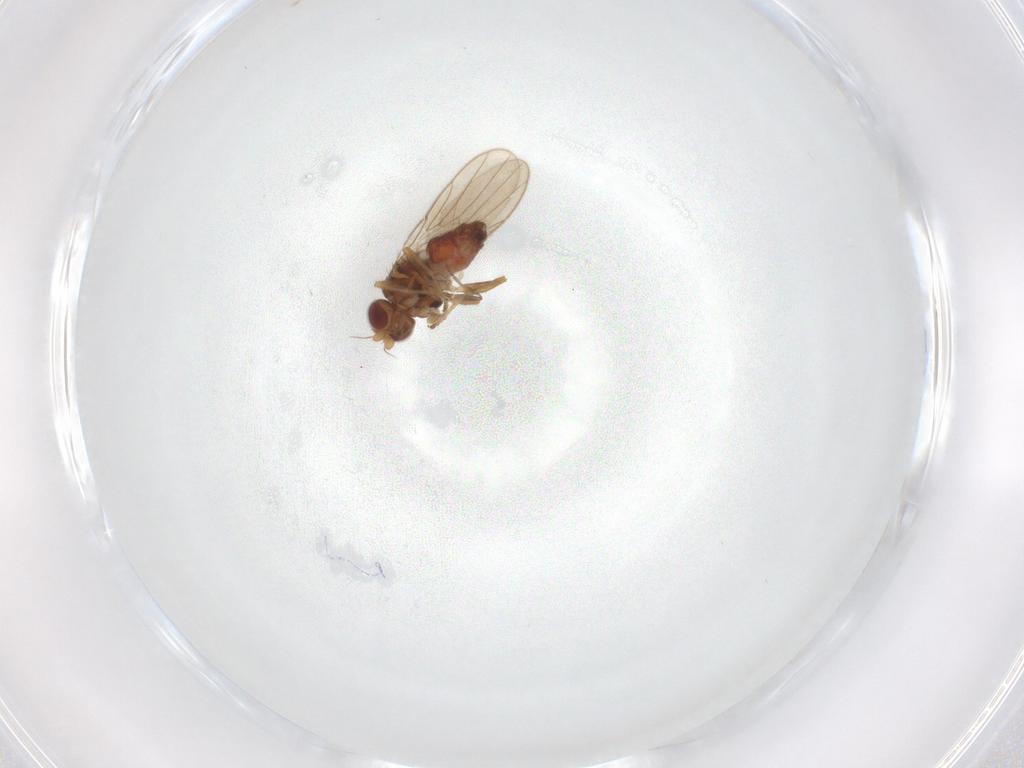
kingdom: Animalia
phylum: Arthropoda
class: Insecta
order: Diptera
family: Chloropidae
